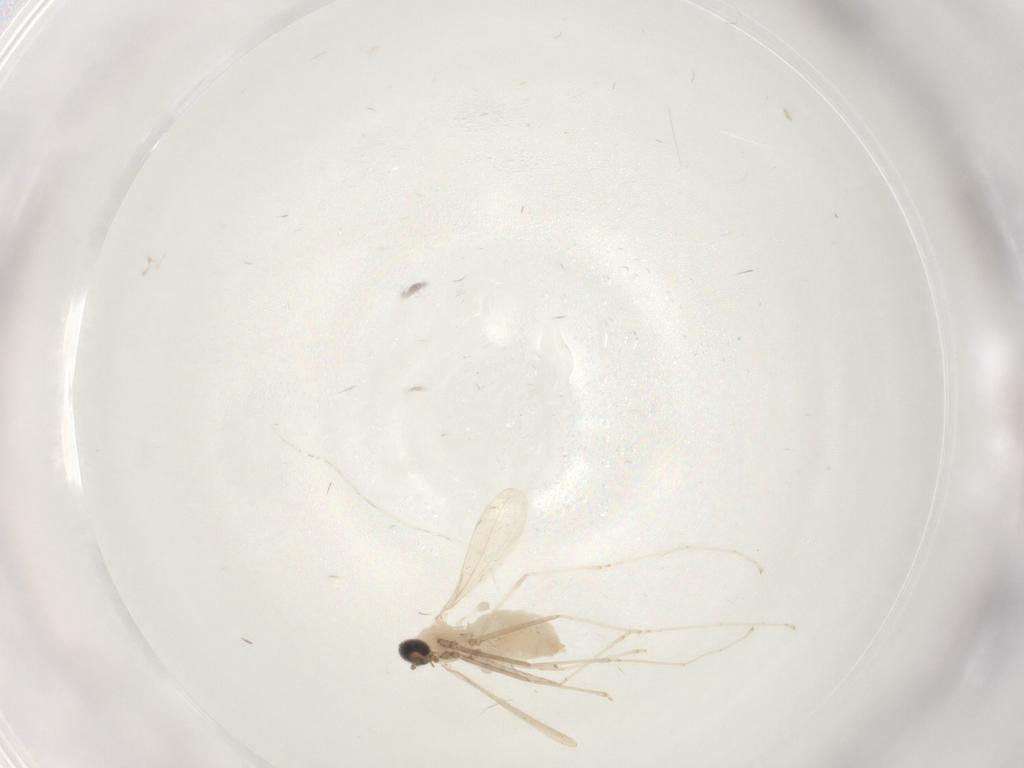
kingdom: Animalia
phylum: Arthropoda
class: Insecta
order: Diptera
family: Cecidomyiidae
